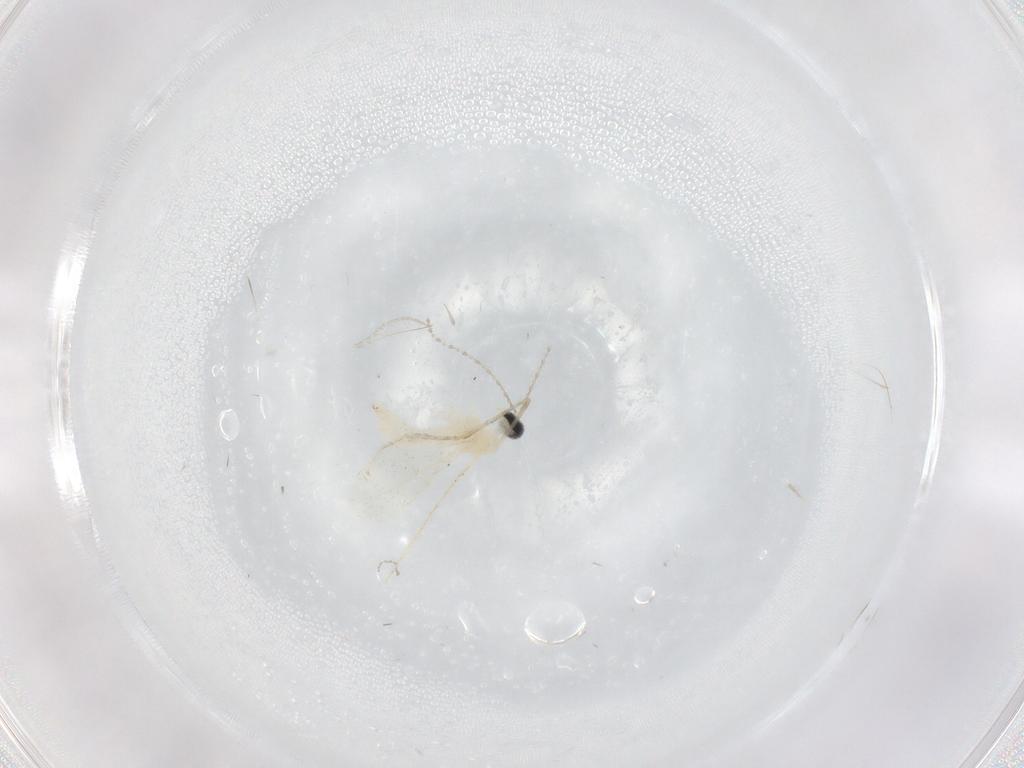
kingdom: Animalia
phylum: Arthropoda
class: Insecta
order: Diptera
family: Cecidomyiidae
